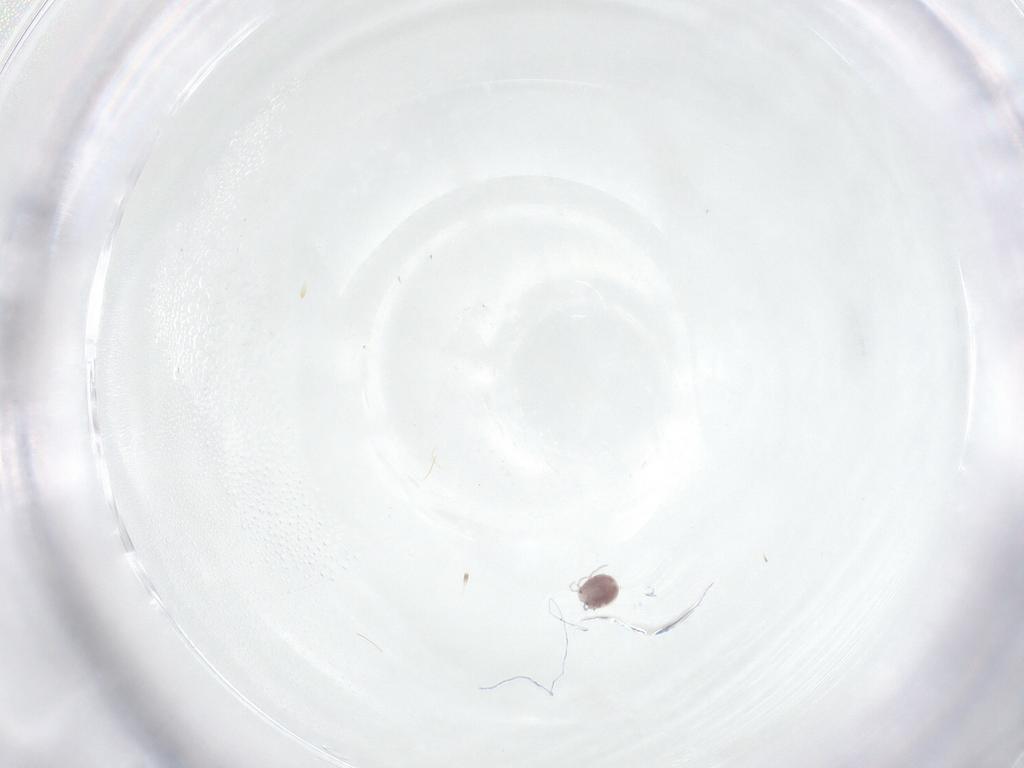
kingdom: Animalia
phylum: Arthropoda
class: Arachnida
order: Trombidiformes
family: Pionidae
